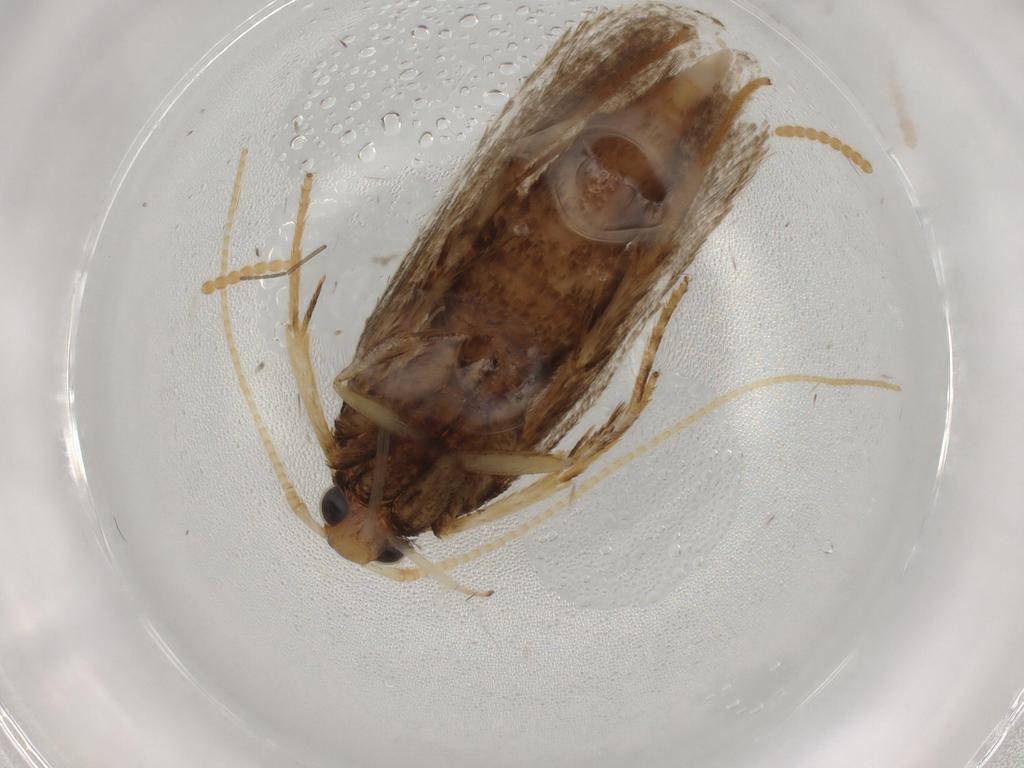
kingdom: Animalia
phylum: Arthropoda
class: Insecta
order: Lepidoptera
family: Lecithoceridae
